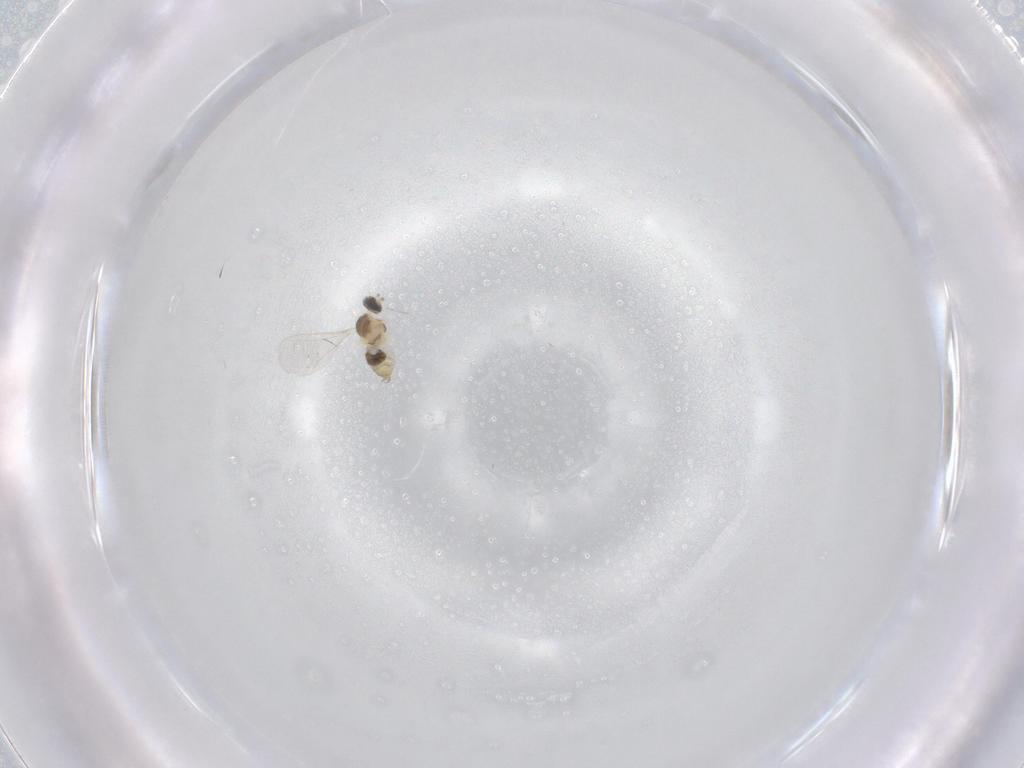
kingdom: Animalia
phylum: Arthropoda
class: Insecta
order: Diptera
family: Cecidomyiidae
